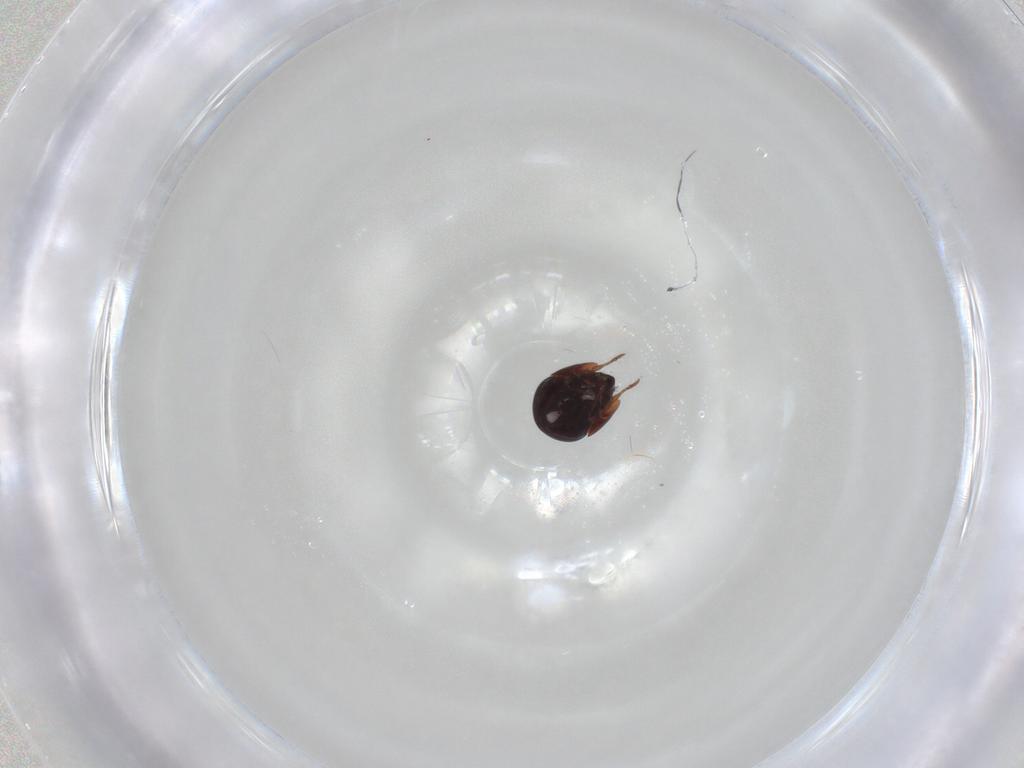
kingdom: Animalia
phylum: Arthropoda
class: Arachnida
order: Sarcoptiformes
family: Galumnidae
